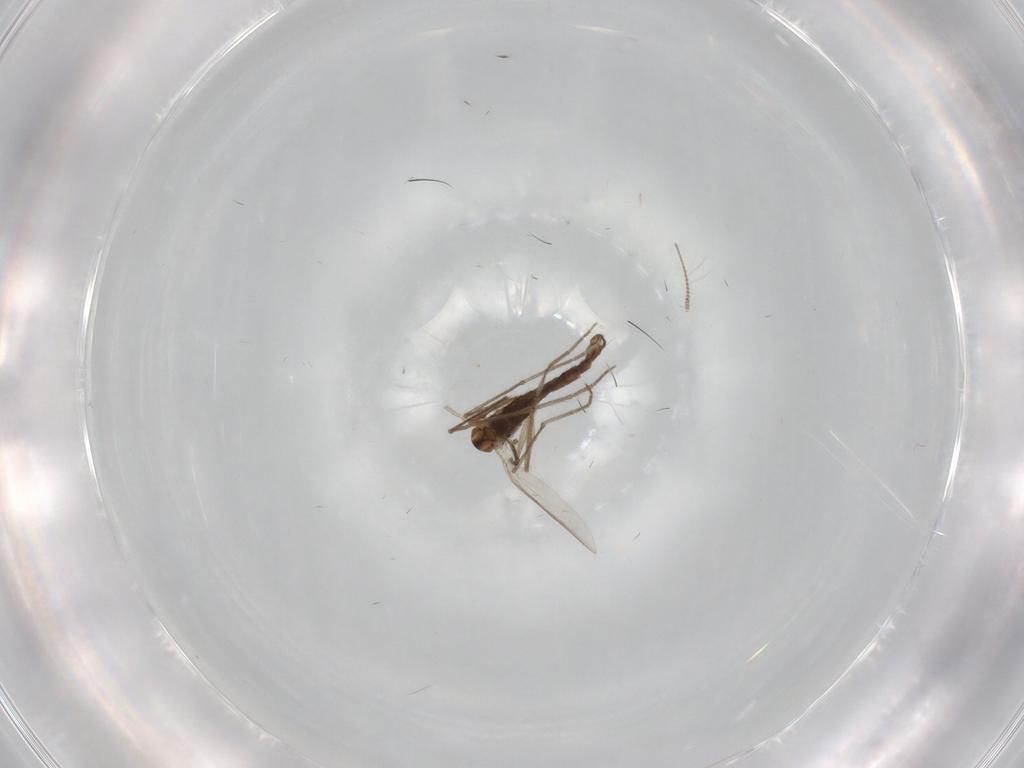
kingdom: Animalia
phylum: Arthropoda
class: Insecta
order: Diptera
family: Chironomidae
